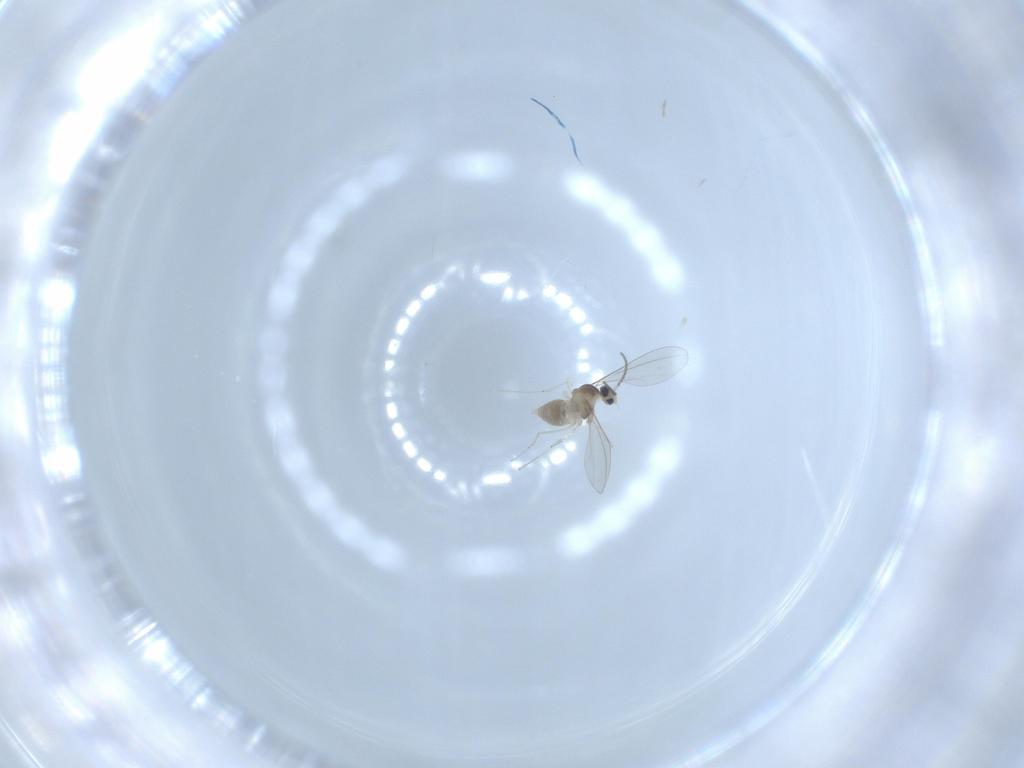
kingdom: Animalia
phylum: Arthropoda
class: Insecta
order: Diptera
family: Cecidomyiidae
